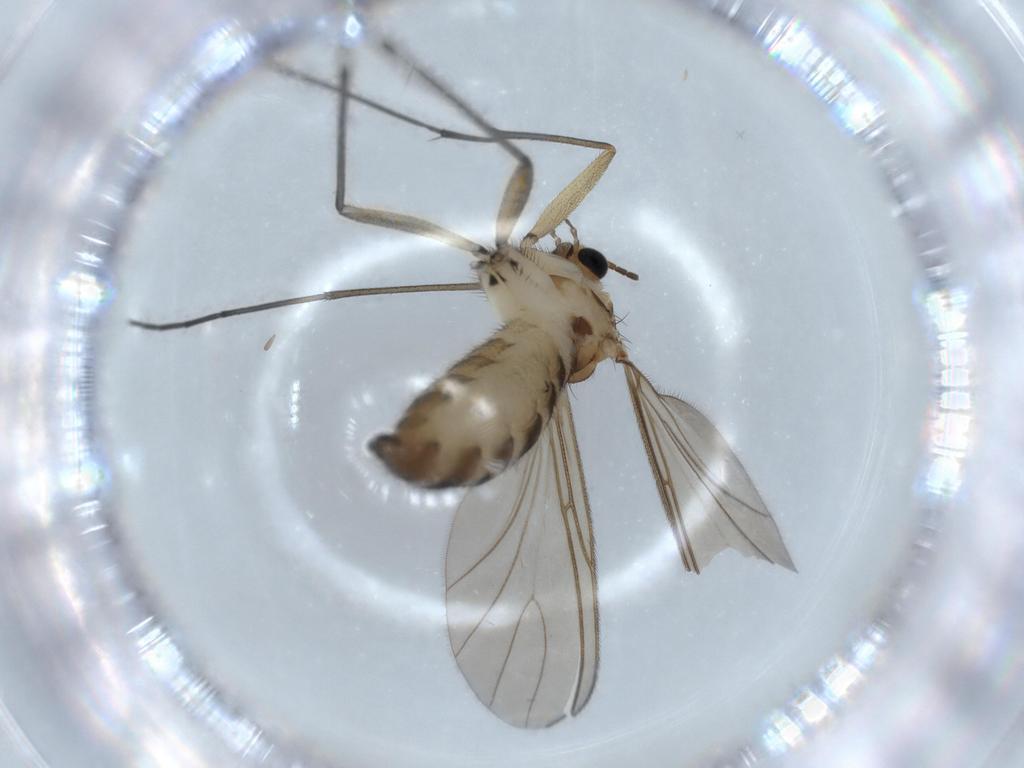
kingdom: Animalia
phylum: Arthropoda
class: Insecta
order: Diptera
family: Sciaridae
